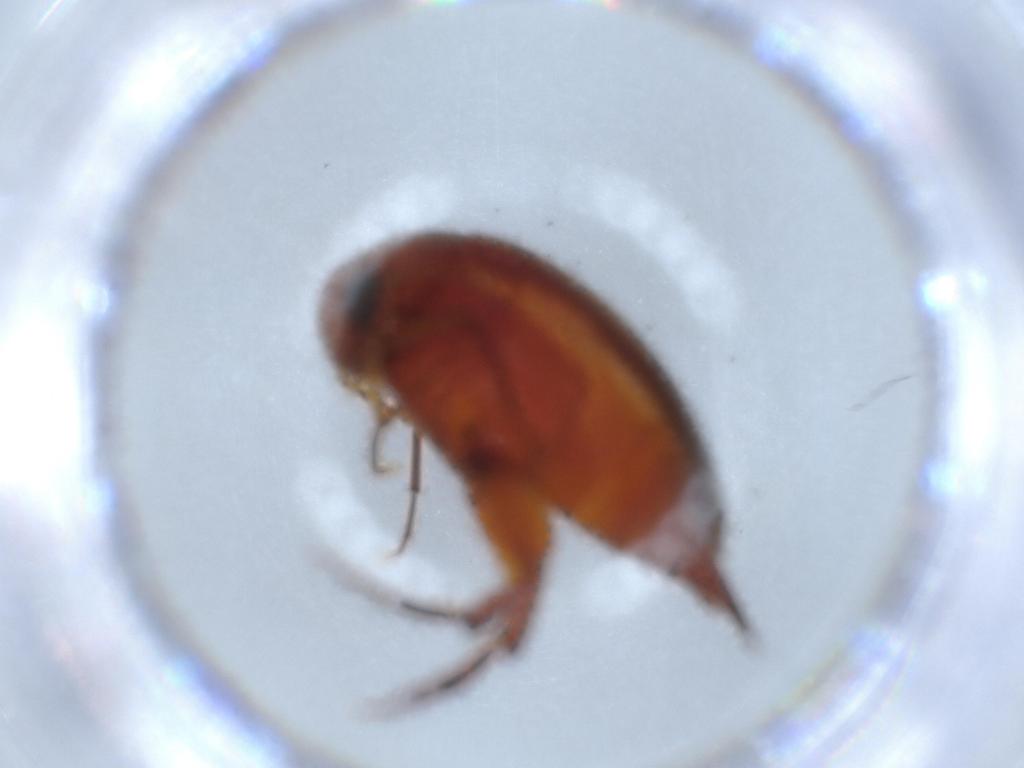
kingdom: Animalia
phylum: Arthropoda
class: Insecta
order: Coleoptera
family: Mordellidae
